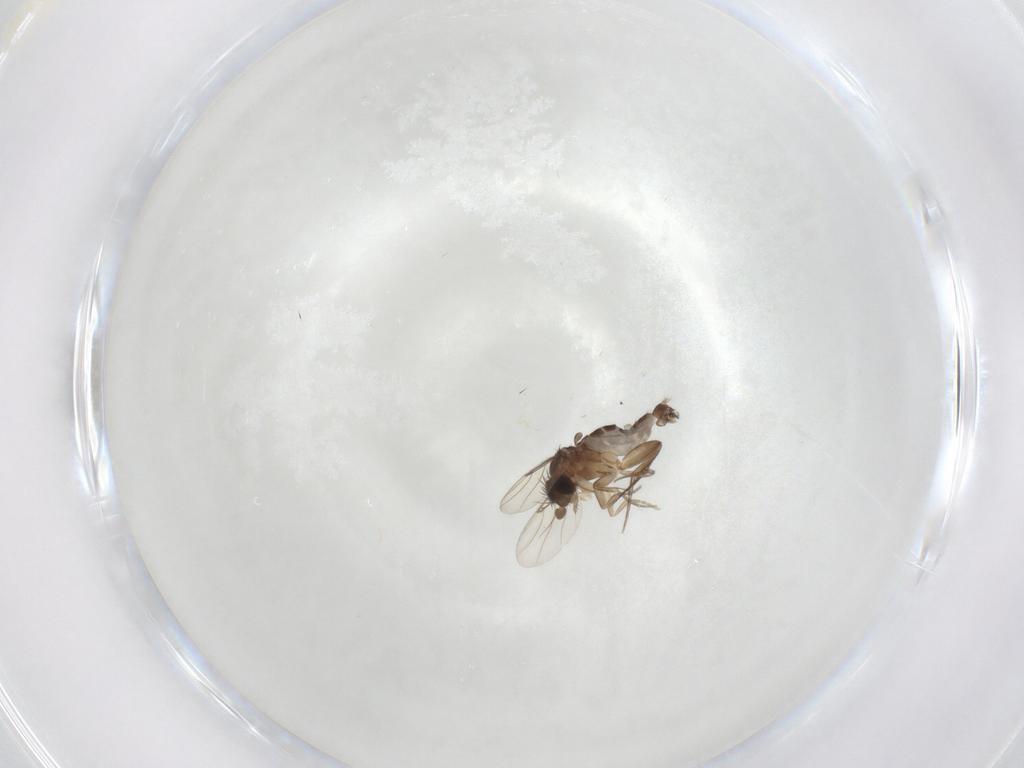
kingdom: Animalia
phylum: Arthropoda
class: Insecta
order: Diptera
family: Phoridae
